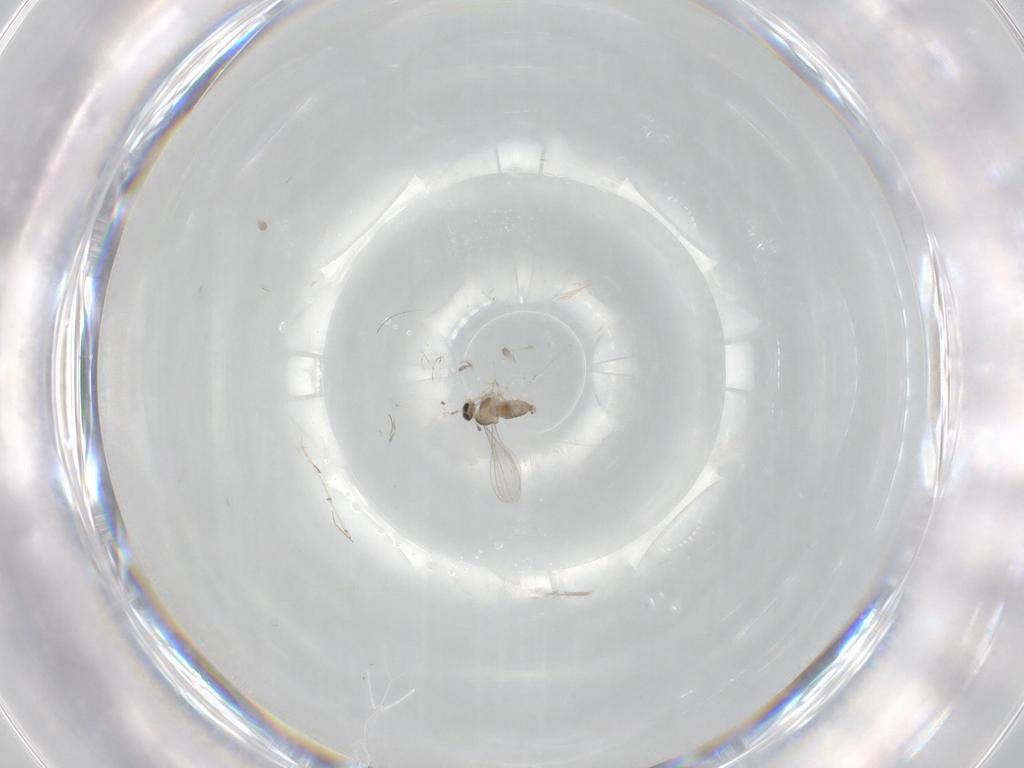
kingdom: Animalia
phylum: Arthropoda
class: Insecta
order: Diptera
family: Cecidomyiidae
